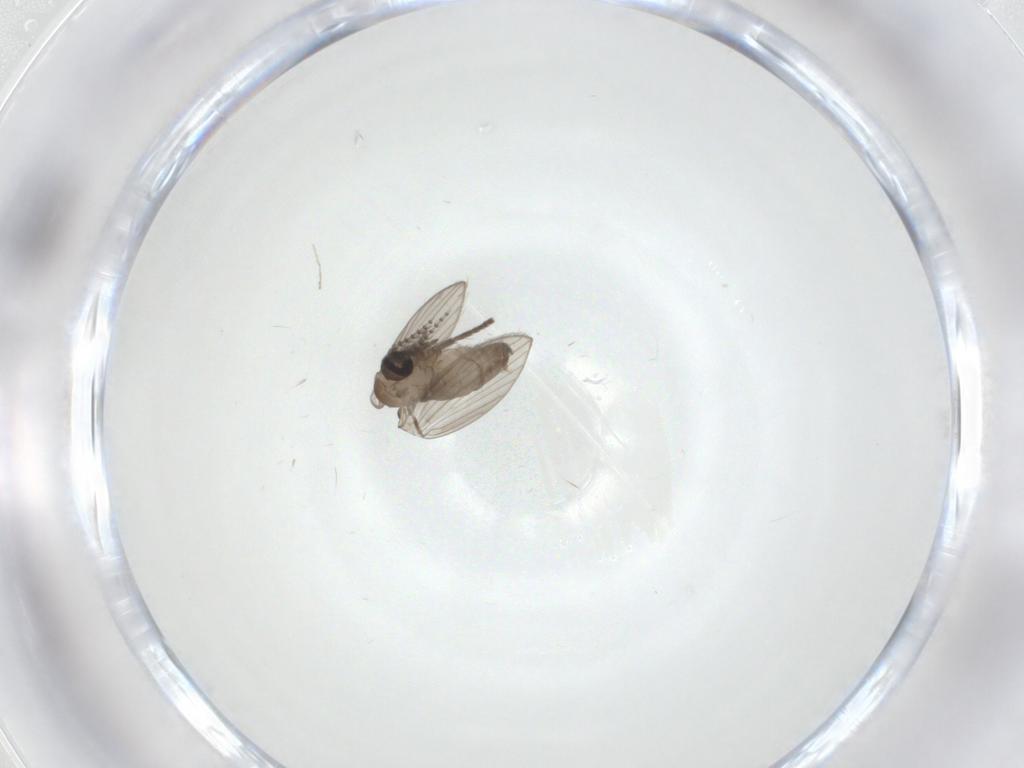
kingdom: Animalia
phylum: Arthropoda
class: Insecta
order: Diptera
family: Psychodidae
